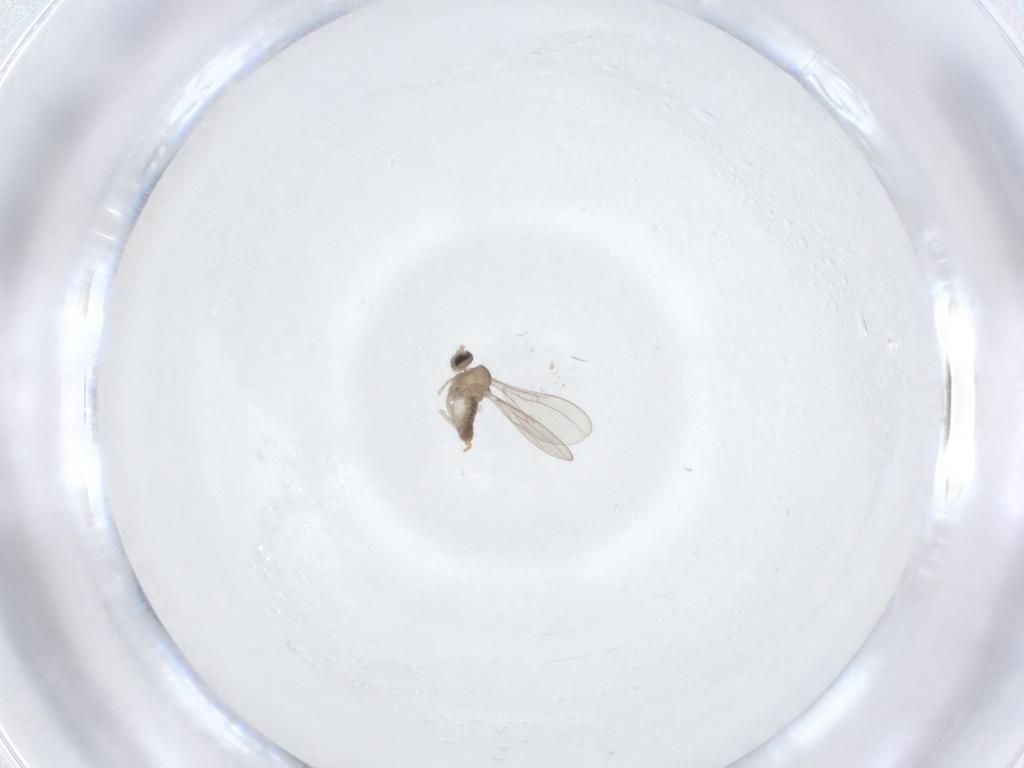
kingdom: Animalia
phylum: Arthropoda
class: Insecta
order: Diptera
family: Cecidomyiidae
